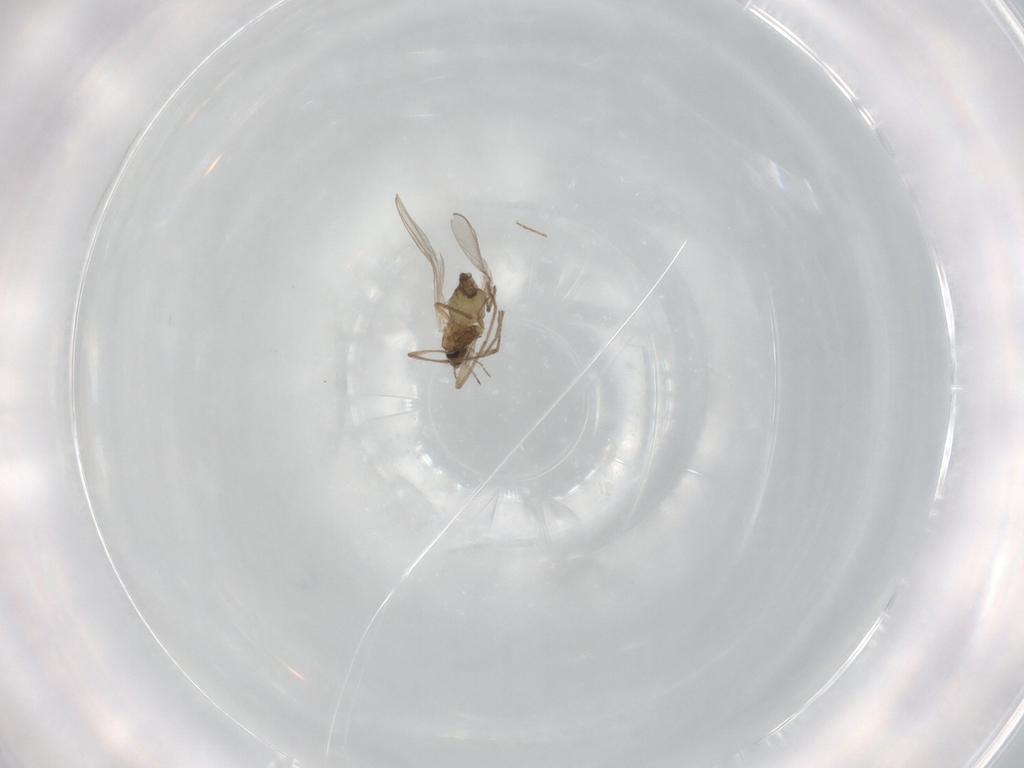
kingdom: Animalia
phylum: Arthropoda
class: Insecta
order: Diptera
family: Chironomidae
